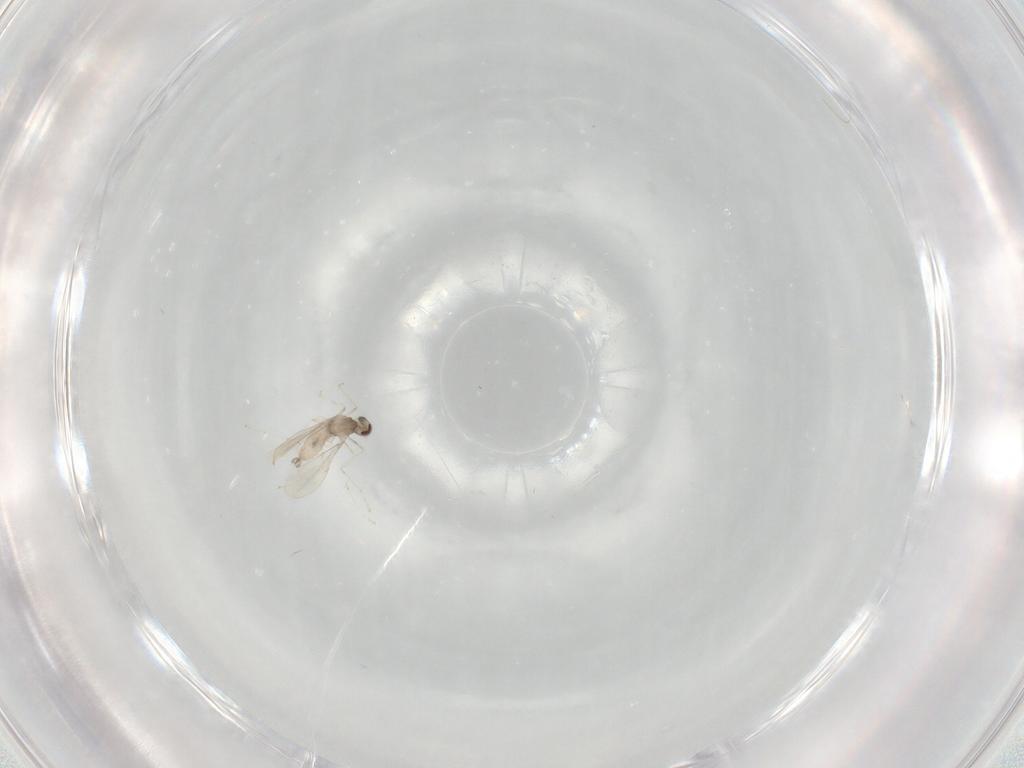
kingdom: Animalia
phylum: Arthropoda
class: Insecta
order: Diptera
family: Cecidomyiidae
